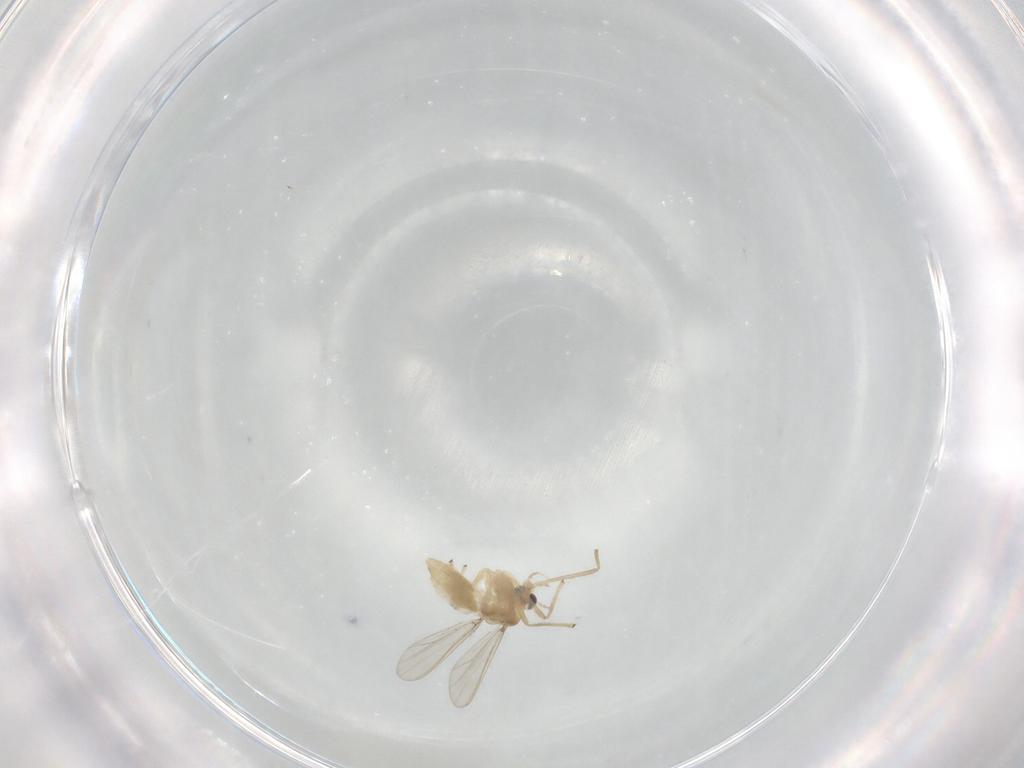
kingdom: Animalia
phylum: Arthropoda
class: Insecta
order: Diptera
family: Chironomidae
